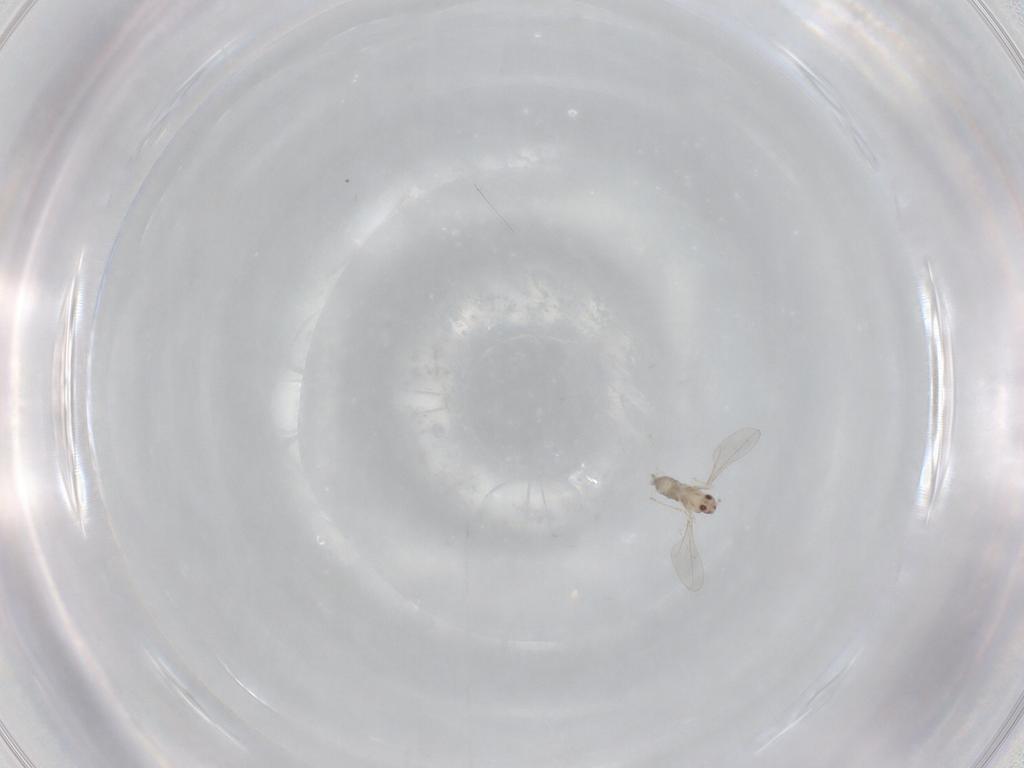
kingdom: Animalia
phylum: Arthropoda
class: Insecta
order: Diptera
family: Cecidomyiidae
